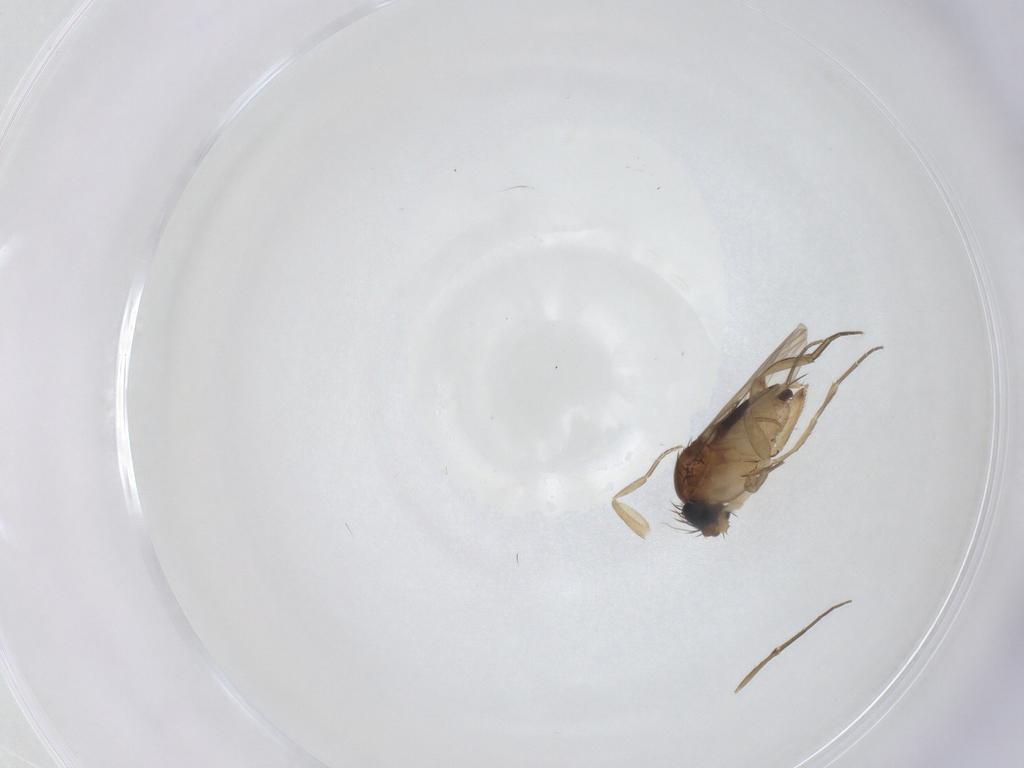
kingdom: Animalia
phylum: Arthropoda
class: Insecta
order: Diptera
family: Phoridae
